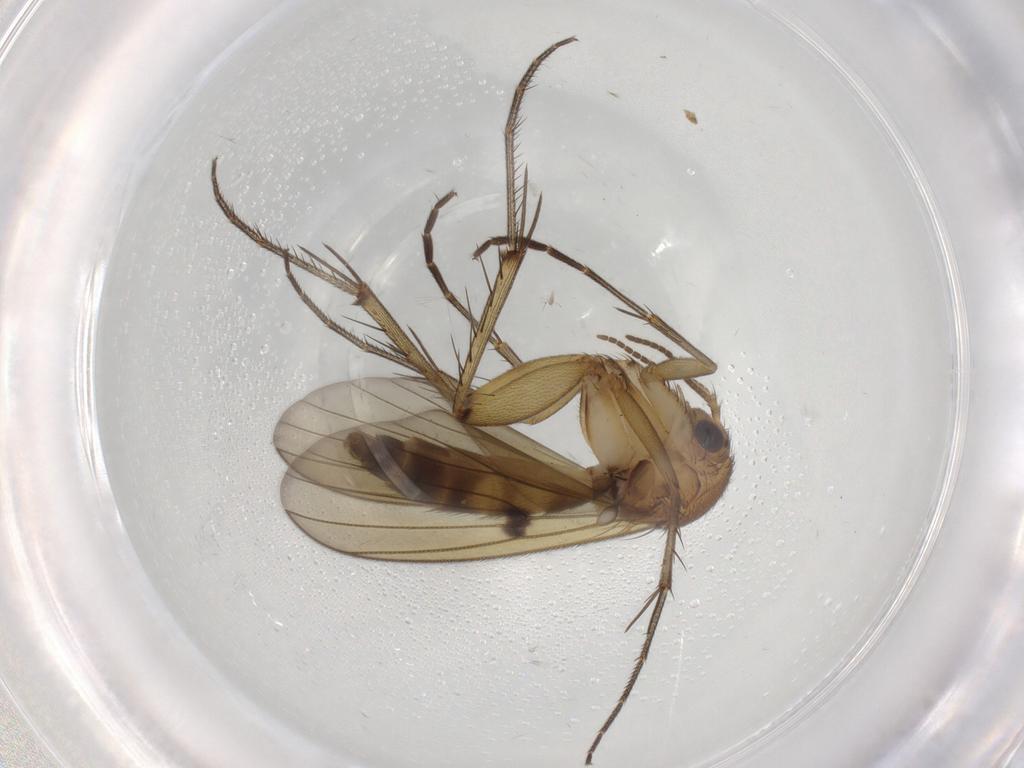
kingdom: Animalia
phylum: Arthropoda
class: Insecta
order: Diptera
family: Mycetophilidae
